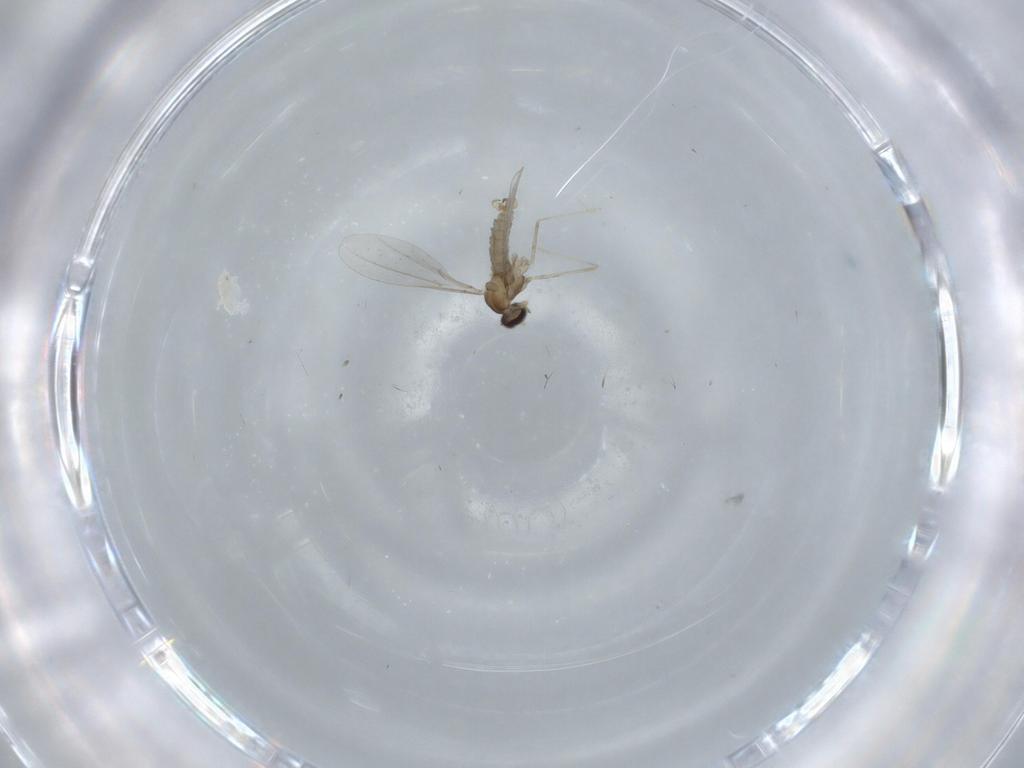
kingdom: Animalia
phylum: Arthropoda
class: Insecta
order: Diptera
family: Cecidomyiidae
